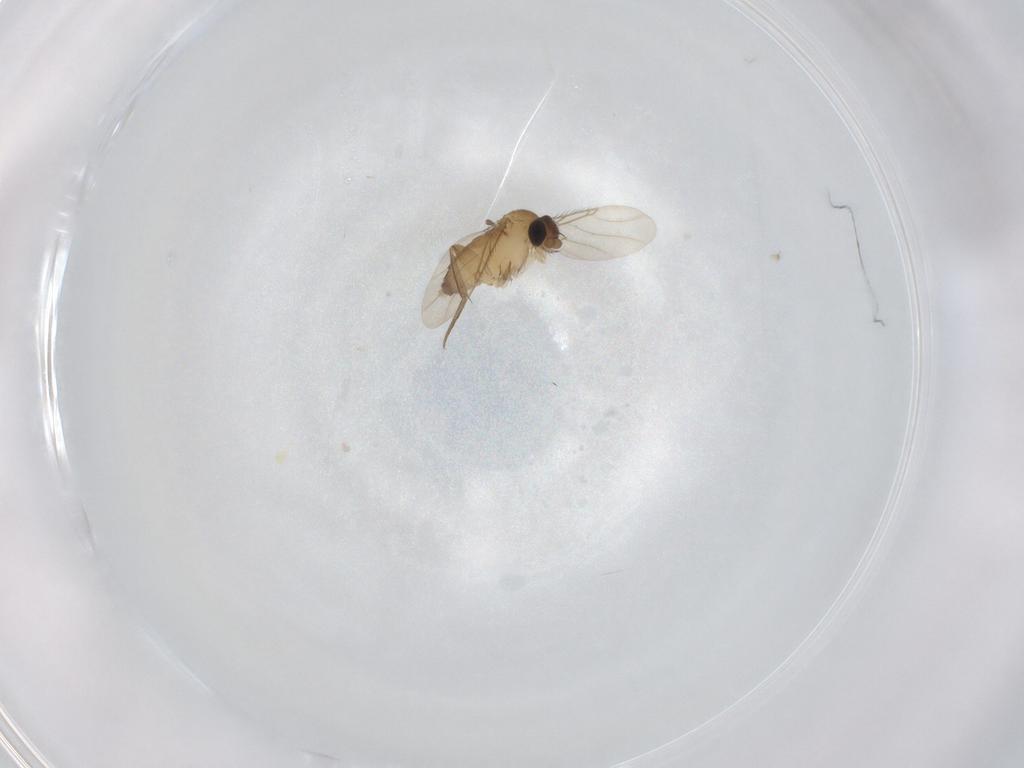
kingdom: Animalia
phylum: Arthropoda
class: Insecta
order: Diptera
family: Phoridae
